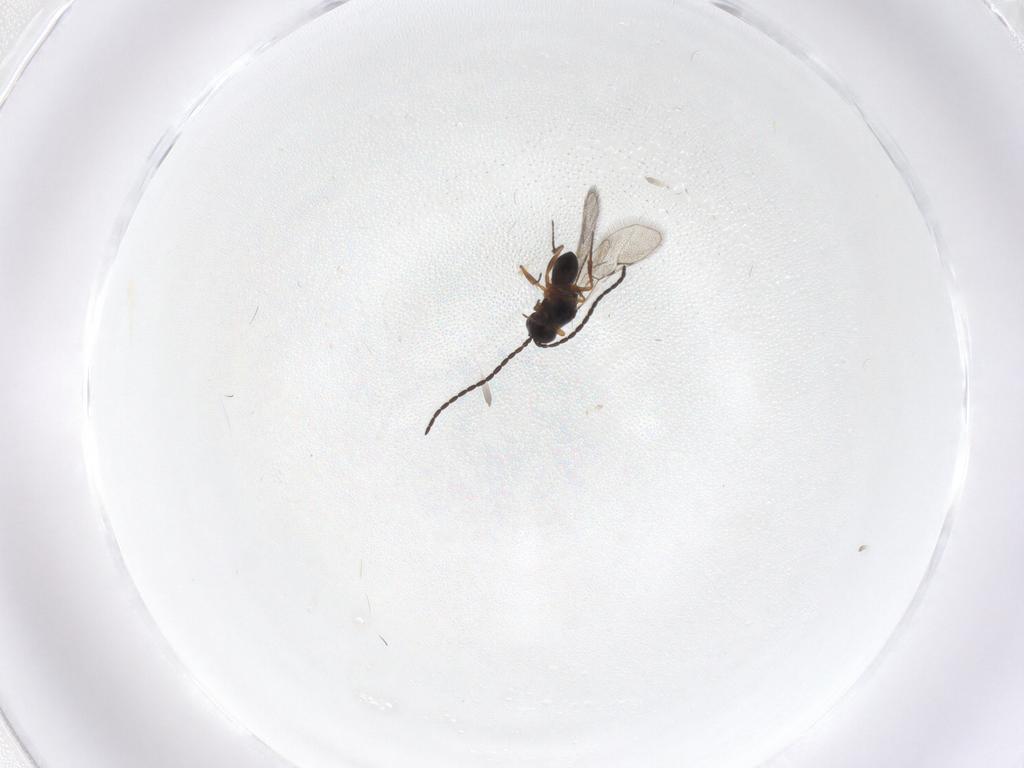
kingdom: Animalia
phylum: Arthropoda
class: Insecta
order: Hymenoptera
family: Figitidae
